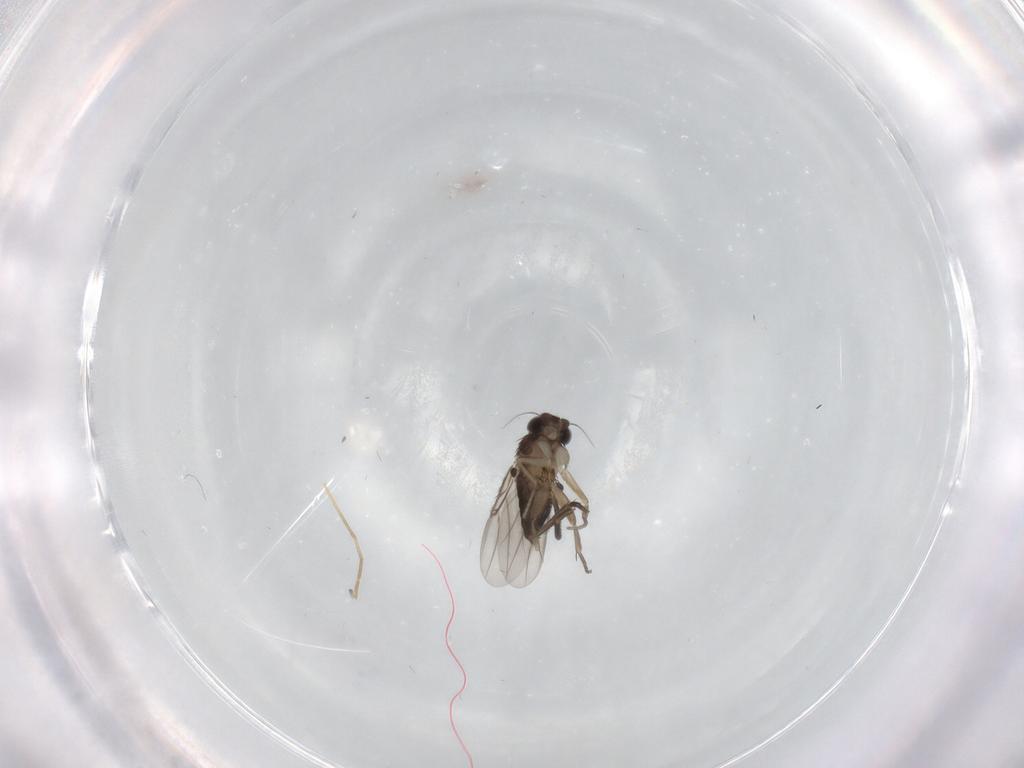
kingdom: Animalia
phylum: Arthropoda
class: Insecta
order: Diptera
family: Phoridae
